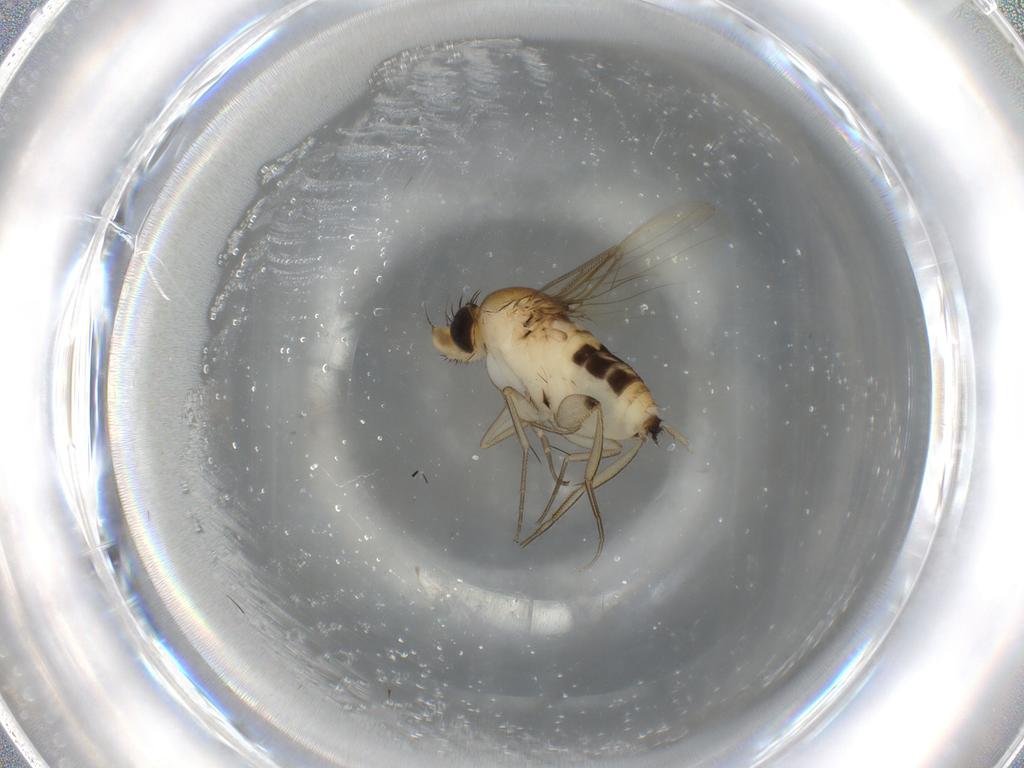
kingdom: Animalia
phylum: Arthropoda
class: Insecta
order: Diptera
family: Phoridae
